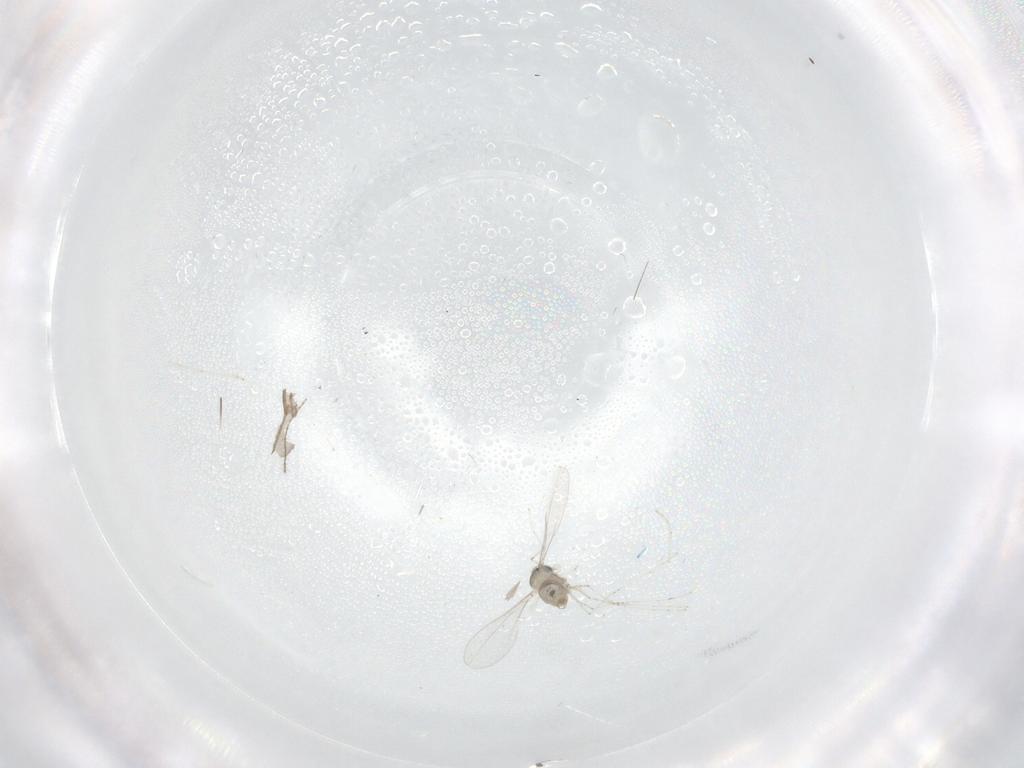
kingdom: Animalia
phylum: Arthropoda
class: Insecta
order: Diptera
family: Sciaridae
